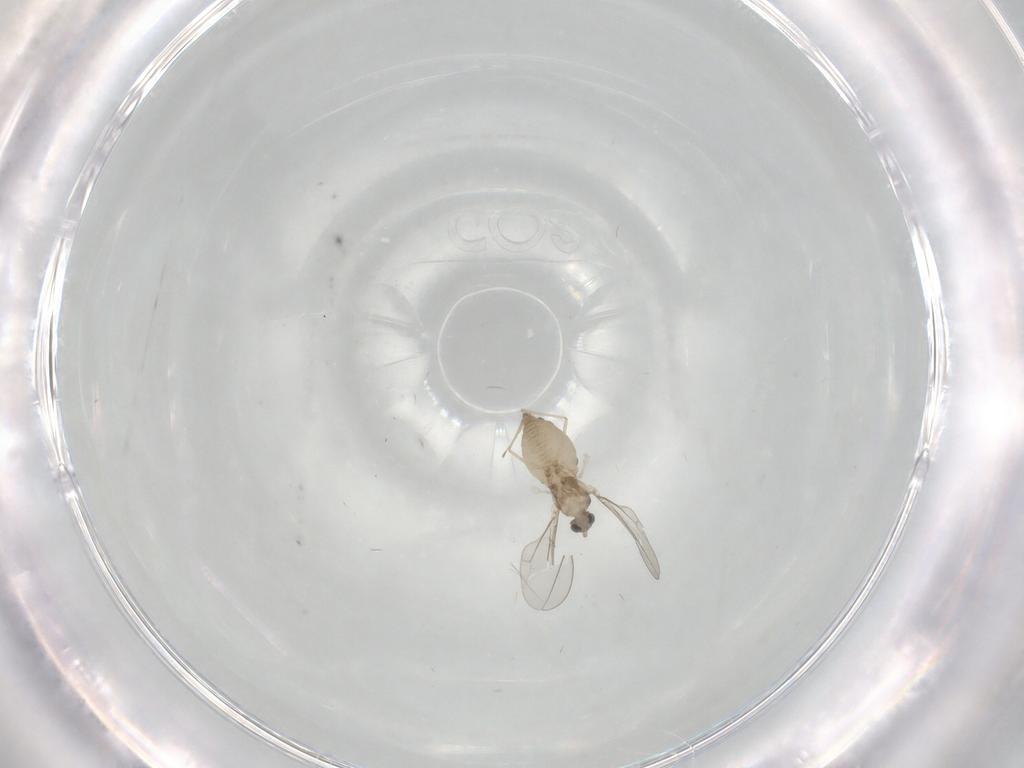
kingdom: Animalia
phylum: Arthropoda
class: Insecta
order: Diptera
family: Cecidomyiidae
